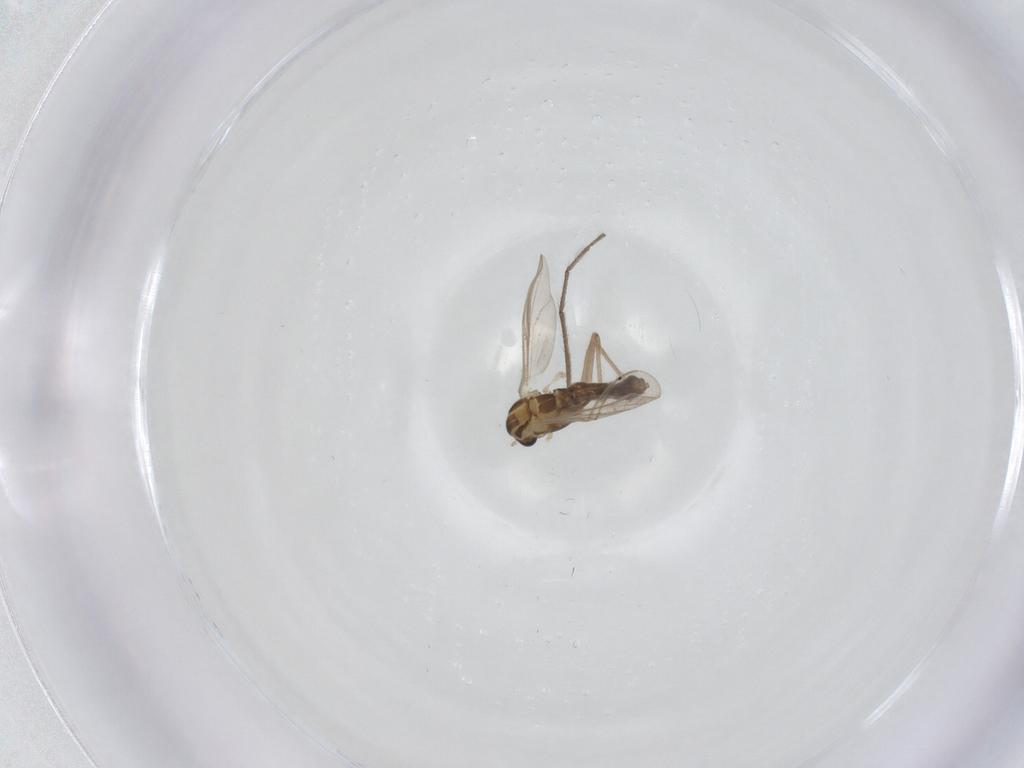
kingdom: Animalia
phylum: Arthropoda
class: Insecta
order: Diptera
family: Chironomidae
